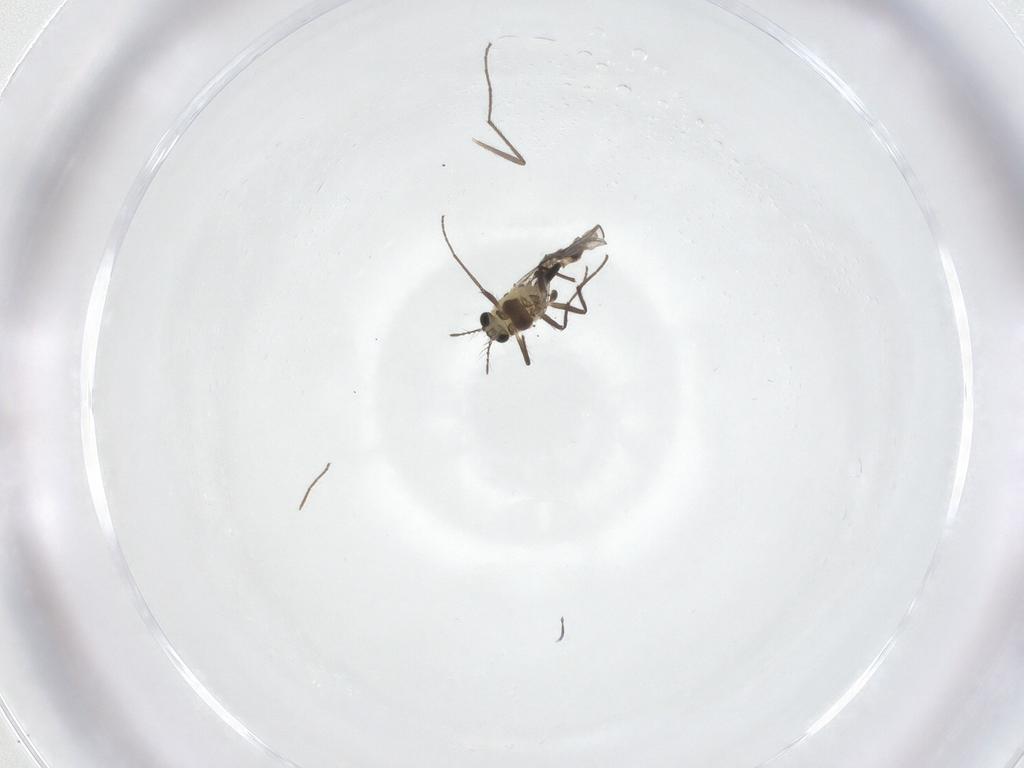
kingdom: Animalia
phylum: Arthropoda
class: Insecta
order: Diptera
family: Chironomidae
